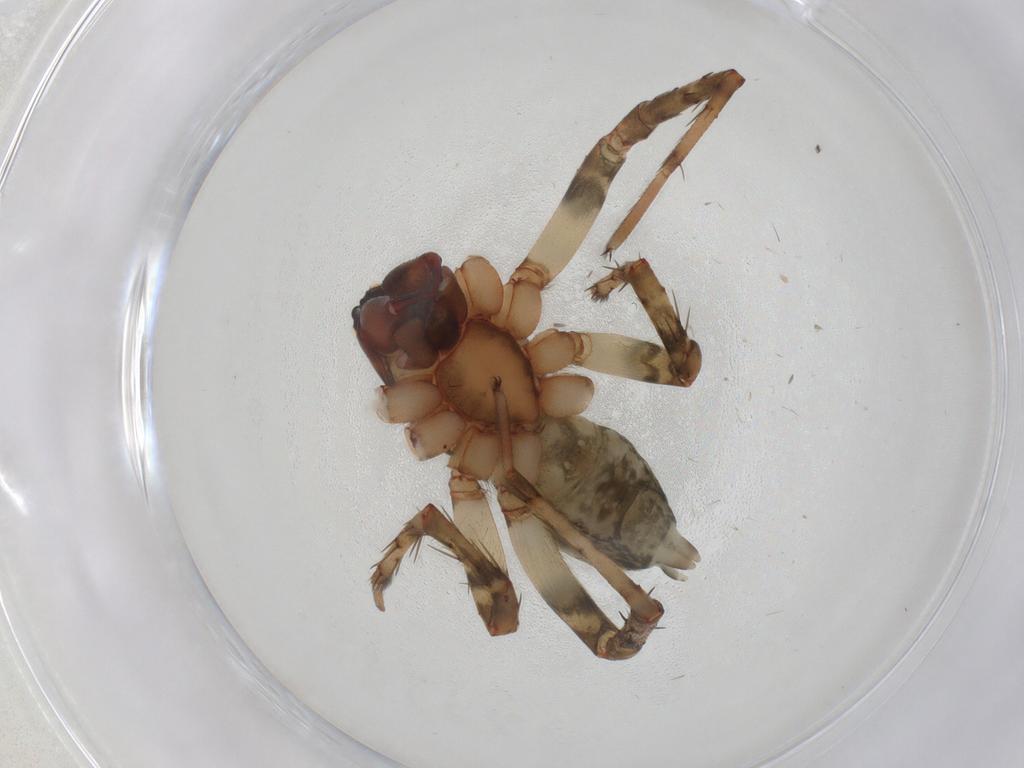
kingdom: Animalia
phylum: Arthropoda
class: Arachnida
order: Araneae
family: Anyphaenidae
